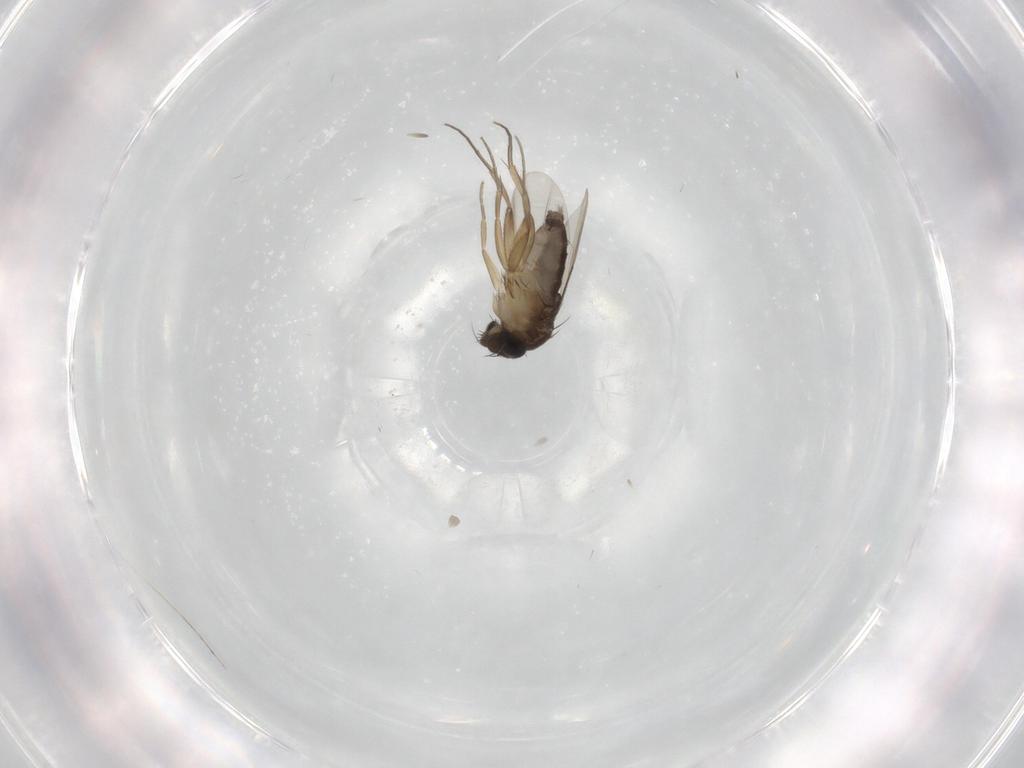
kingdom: Animalia
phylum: Arthropoda
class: Insecta
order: Diptera
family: Phoridae
